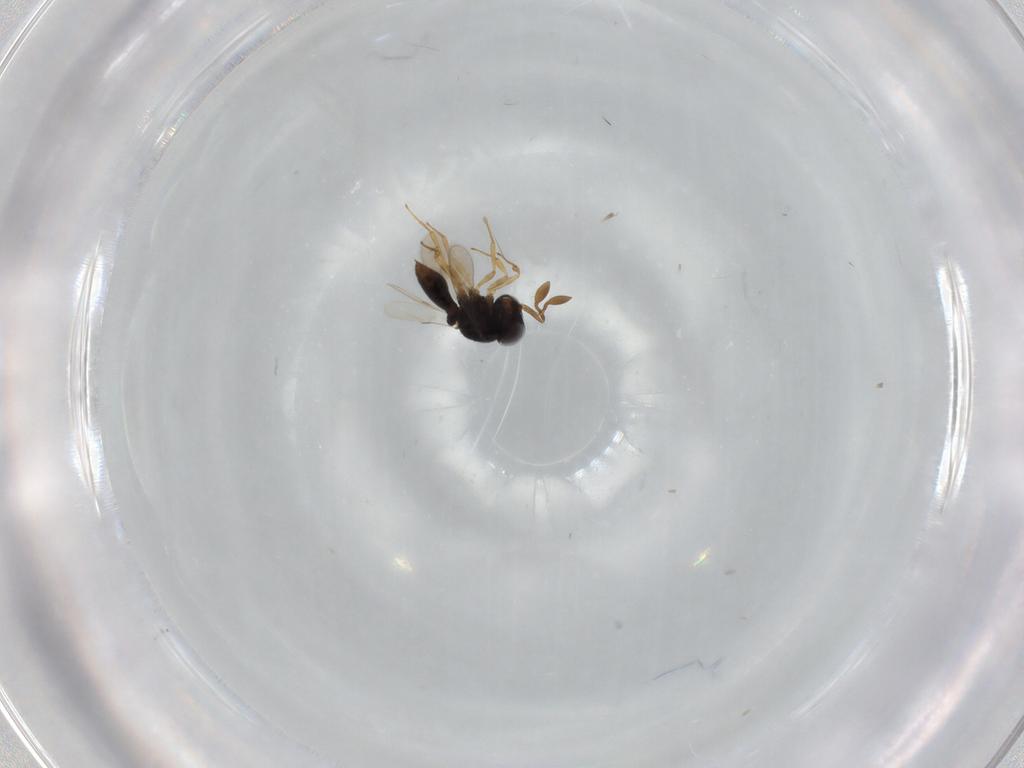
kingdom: Animalia
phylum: Arthropoda
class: Insecta
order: Hymenoptera
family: Scelionidae
